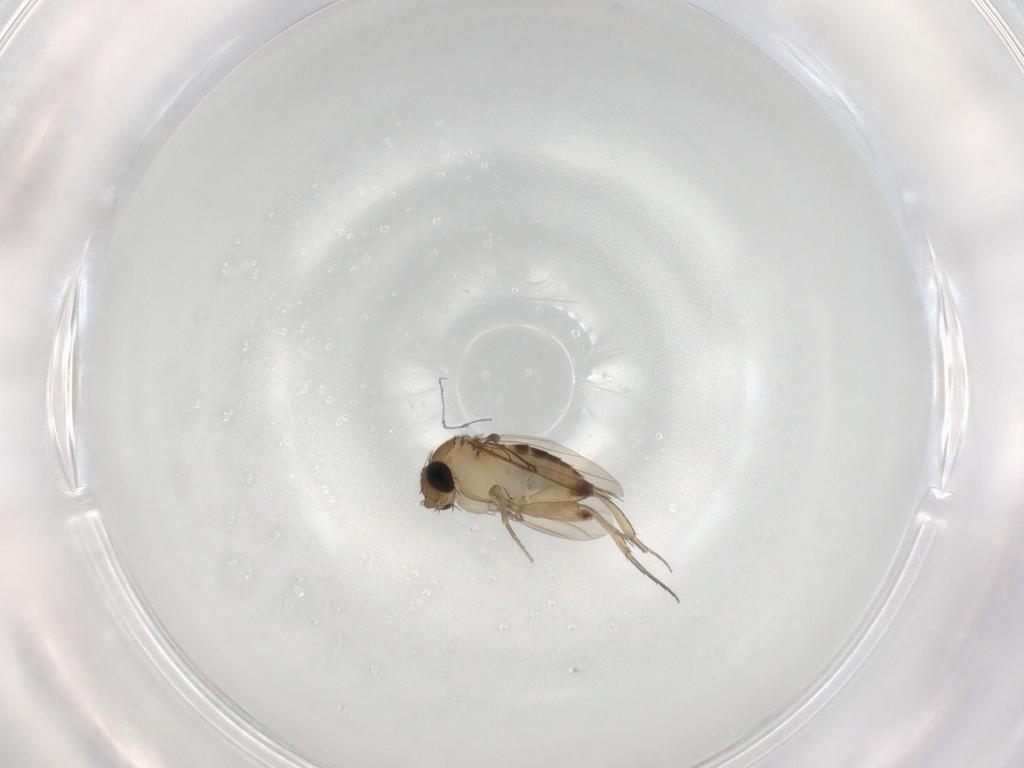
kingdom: Animalia
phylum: Arthropoda
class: Insecta
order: Diptera
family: Phoridae
